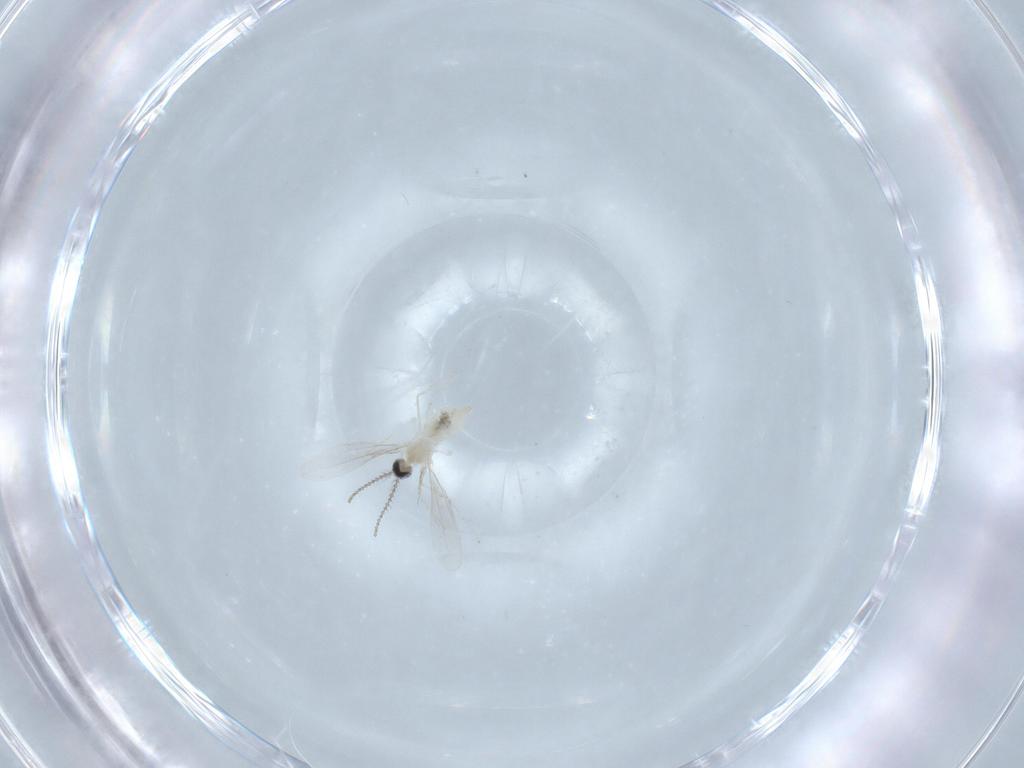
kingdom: Animalia
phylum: Arthropoda
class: Insecta
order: Diptera
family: Cecidomyiidae
